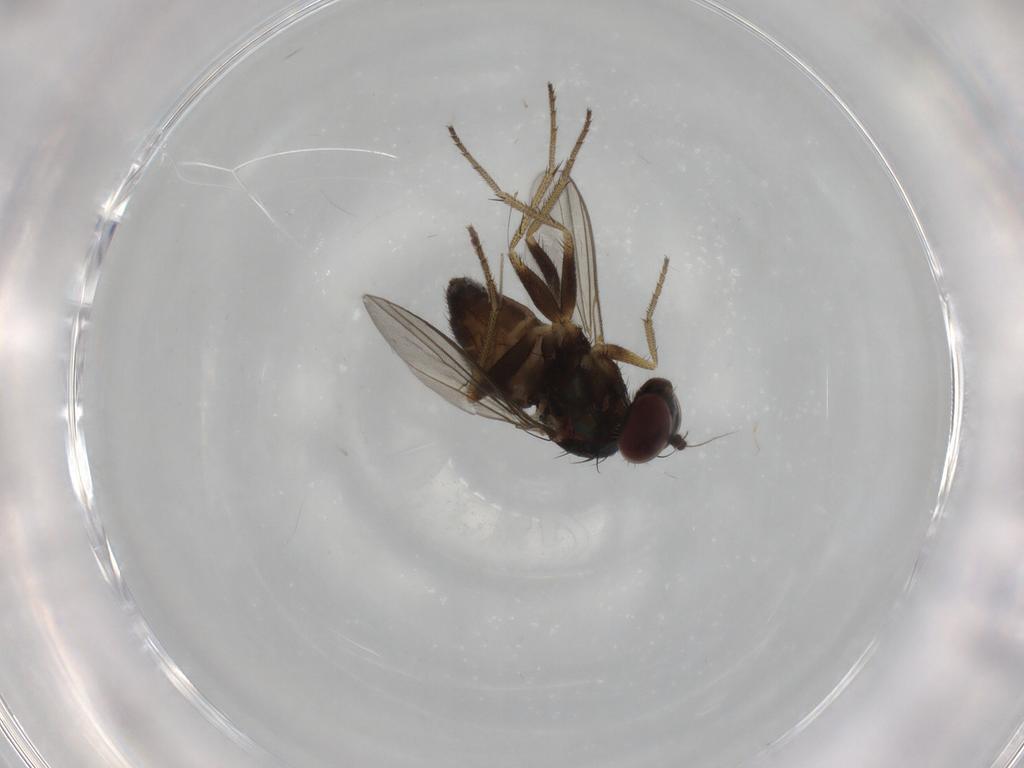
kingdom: Animalia
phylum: Arthropoda
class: Insecta
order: Diptera
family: Chironomidae
